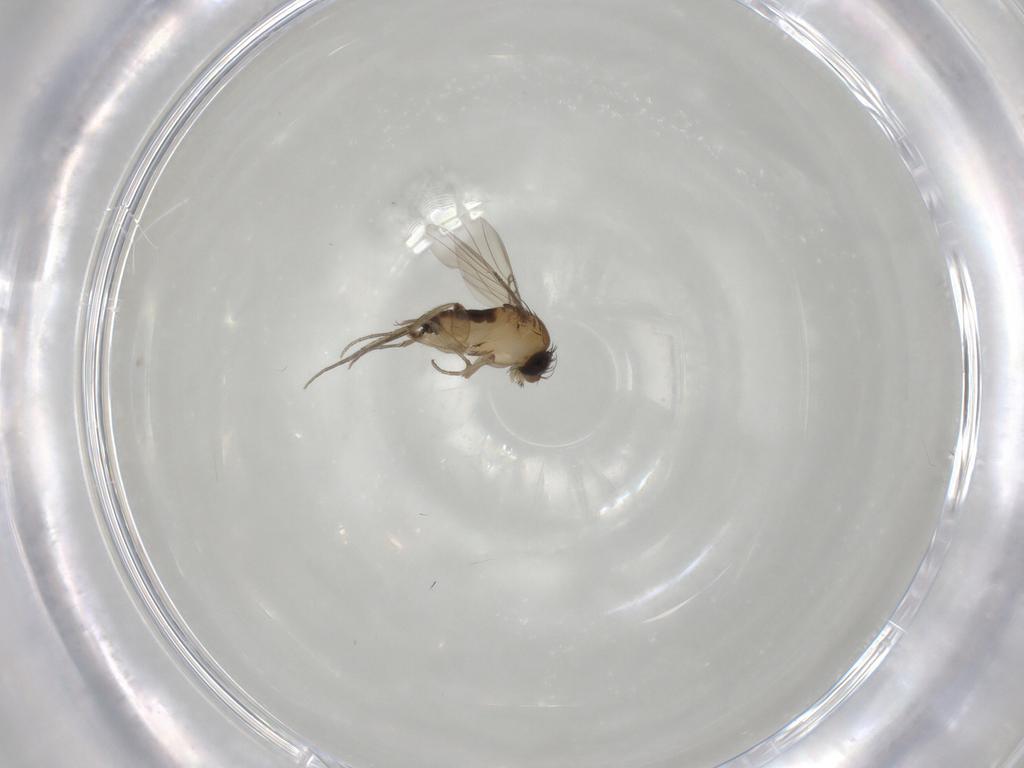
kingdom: Animalia
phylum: Arthropoda
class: Insecta
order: Diptera
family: Phoridae
